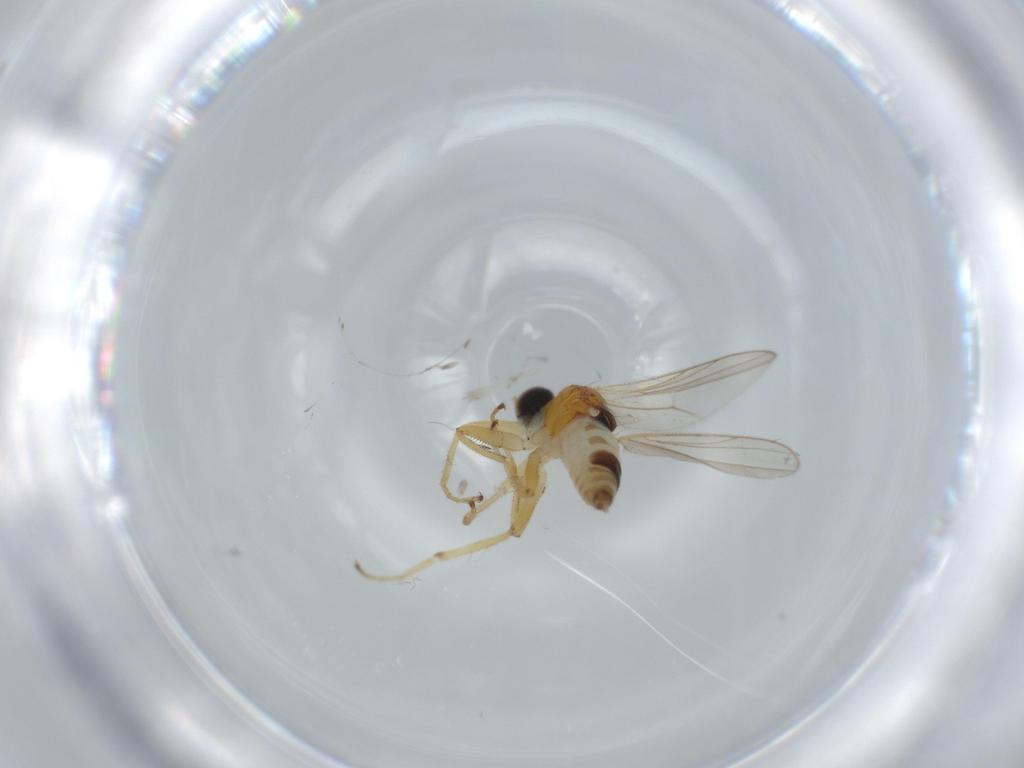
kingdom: Animalia
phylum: Arthropoda
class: Insecta
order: Diptera
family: Hybotidae
